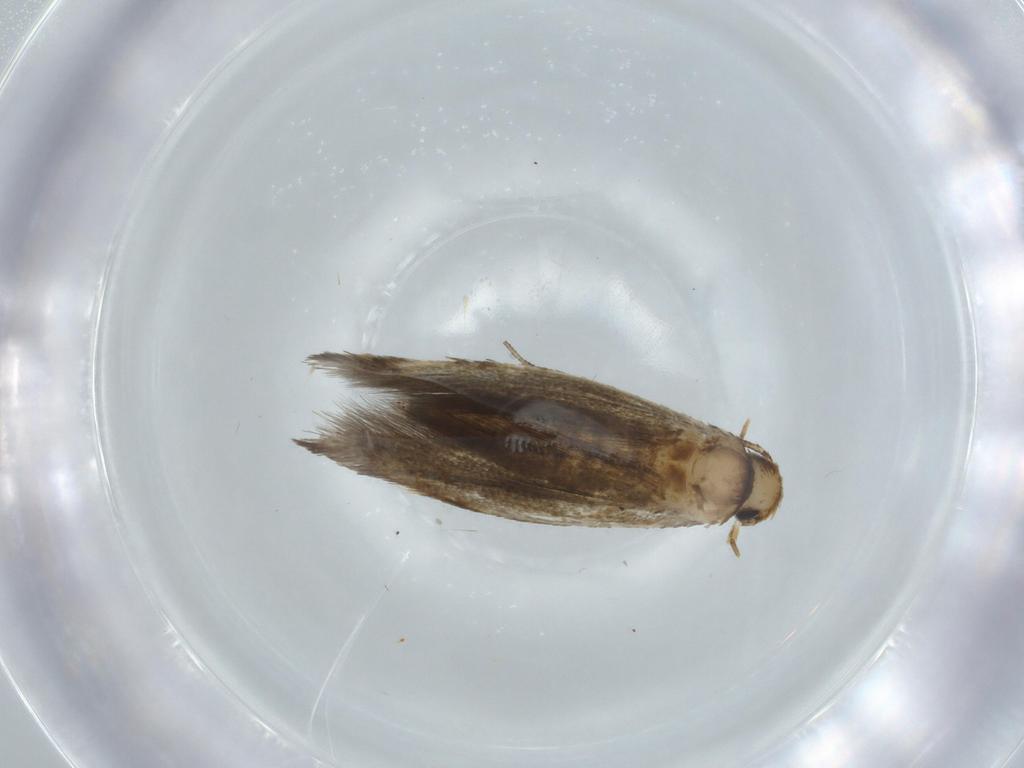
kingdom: Animalia
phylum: Arthropoda
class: Insecta
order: Lepidoptera
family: Tineidae
